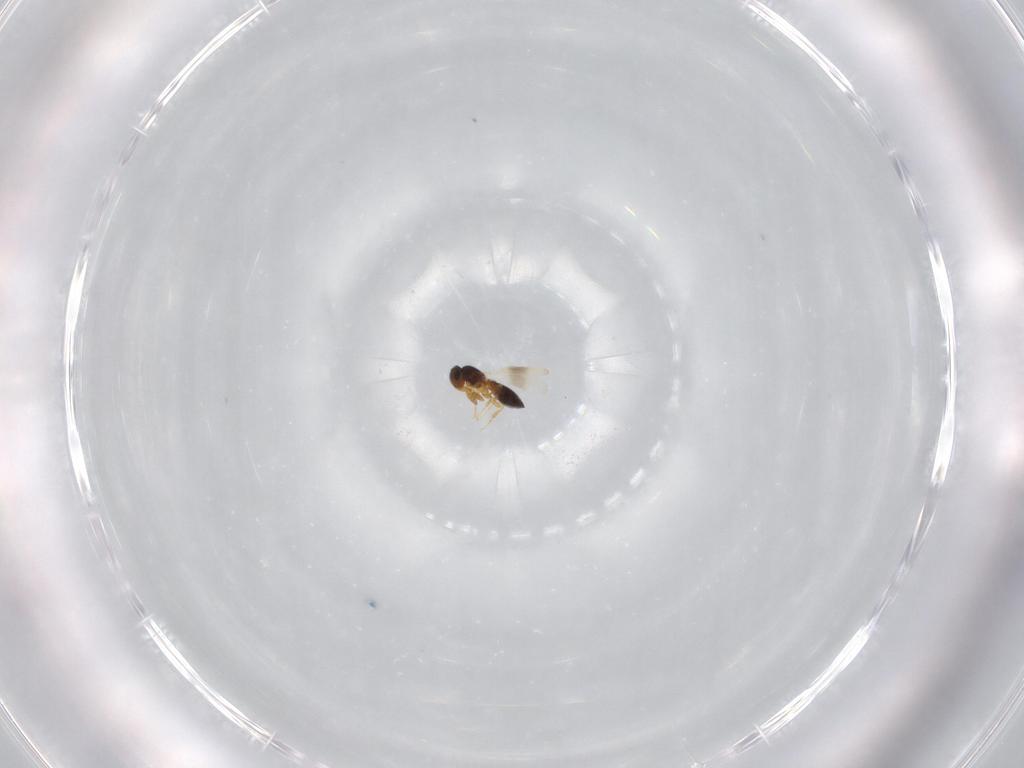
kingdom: Animalia
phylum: Arthropoda
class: Insecta
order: Hymenoptera
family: Platygastridae
